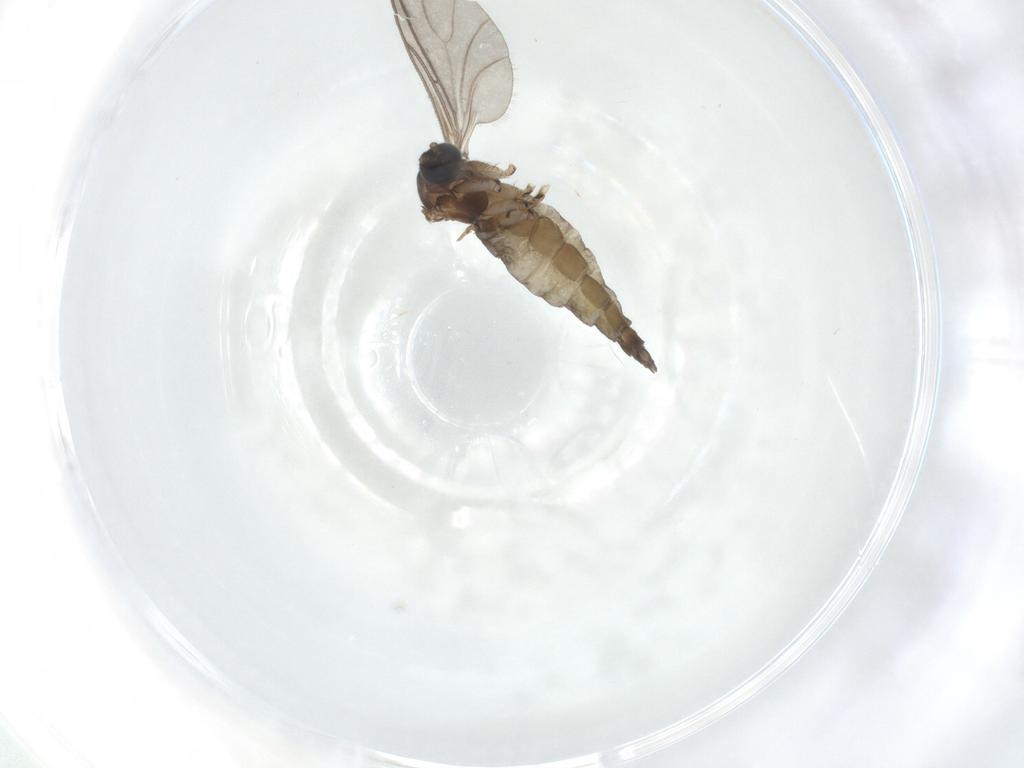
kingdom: Animalia
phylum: Arthropoda
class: Insecta
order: Diptera
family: Sciaridae
